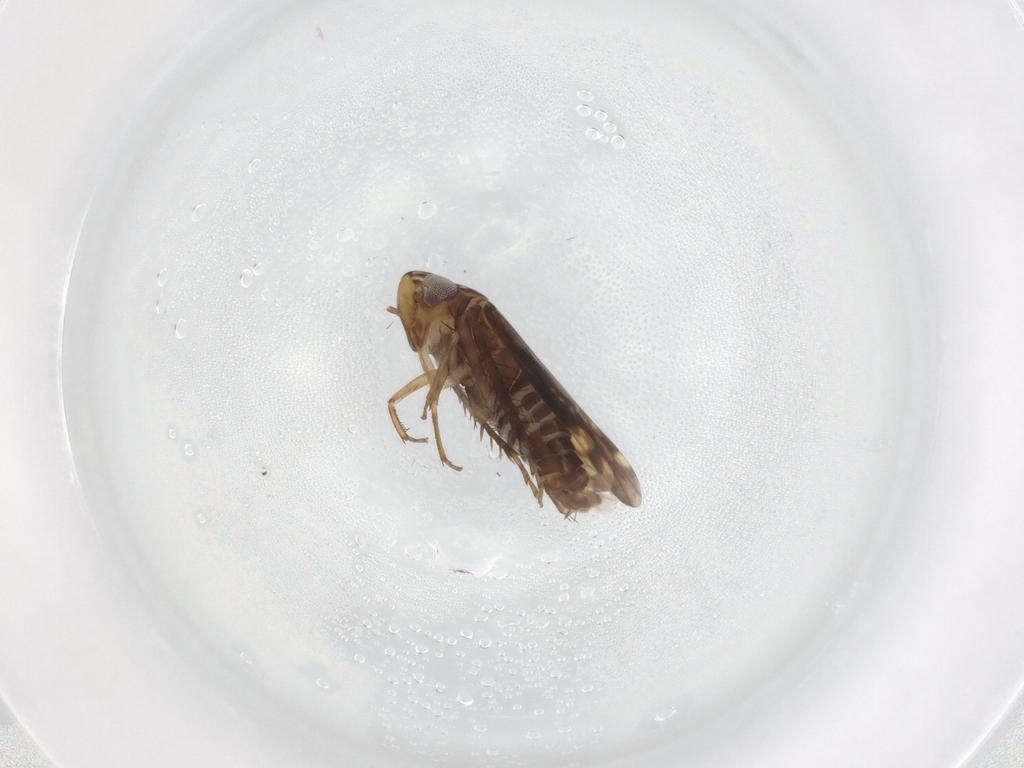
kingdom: Animalia
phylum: Arthropoda
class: Insecta
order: Hemiptera
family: Cicadellidae
